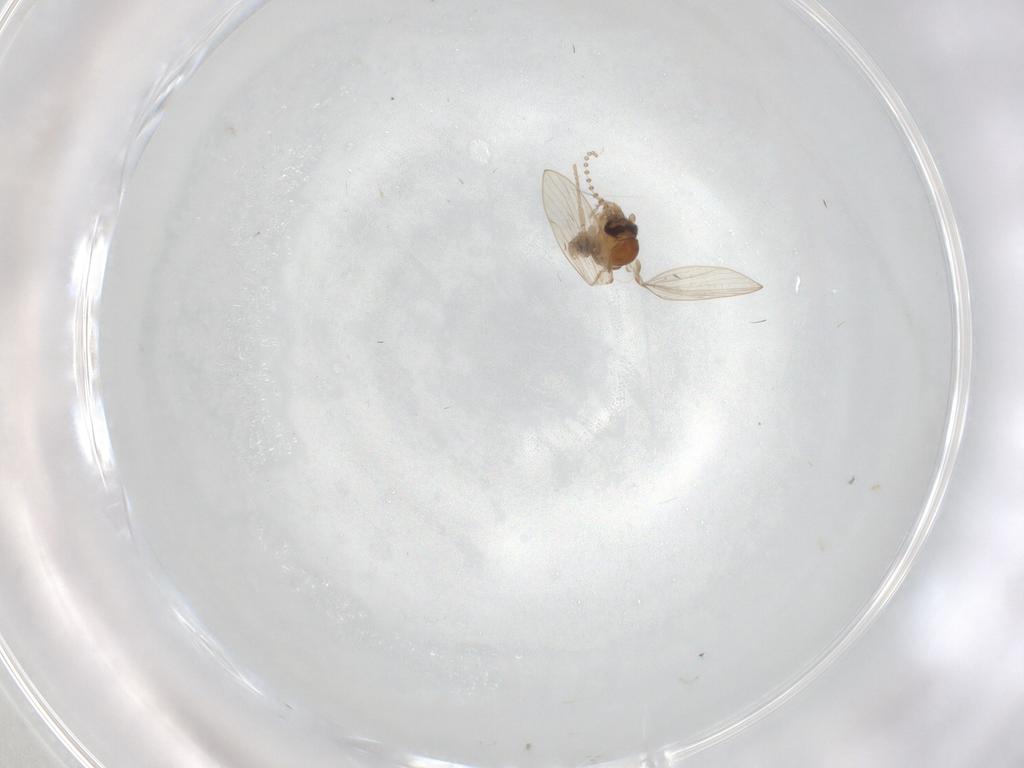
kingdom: Animalia
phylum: Arthropoda
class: Insecta
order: Diptera
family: Psychodidae
